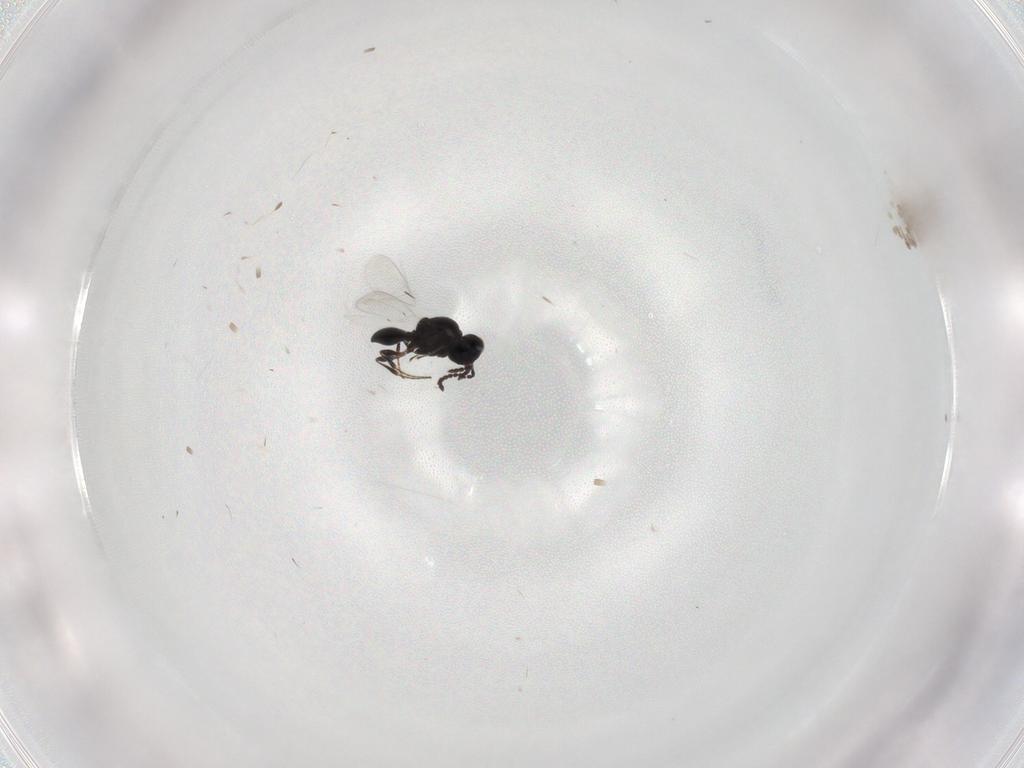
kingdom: Animalia
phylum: Arthropoda
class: Insecta
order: Hymenoptera
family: Platygastridae
